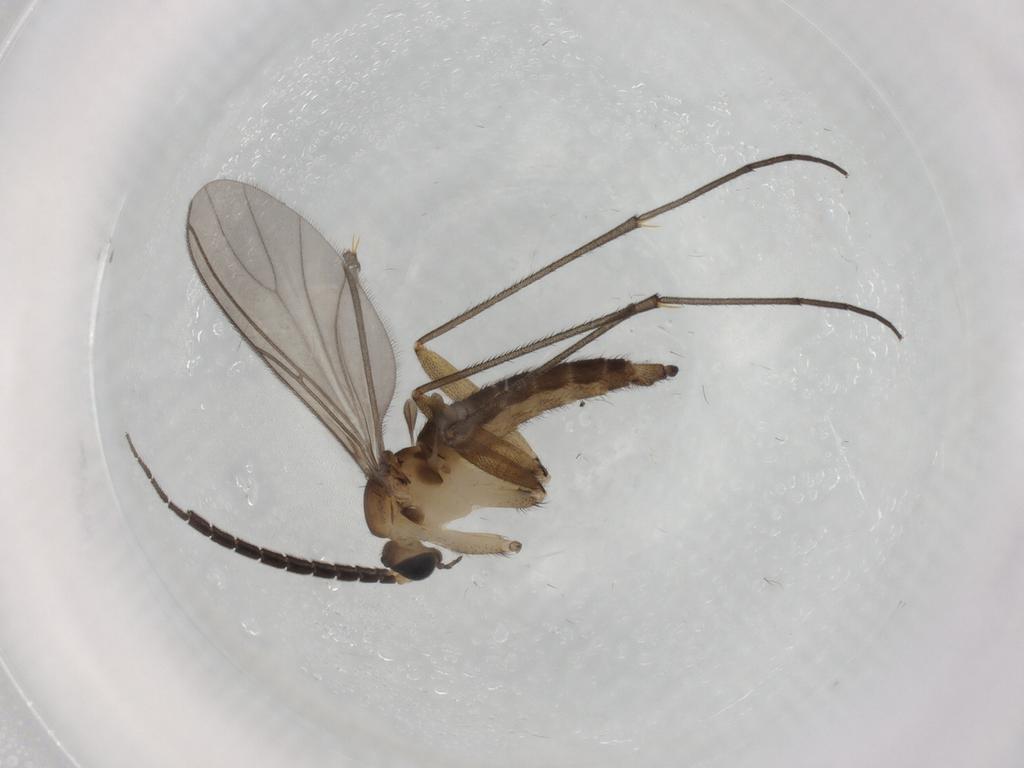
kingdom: Animalia
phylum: Arthropoda
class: Insecta
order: Diptera
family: Sciaridae
